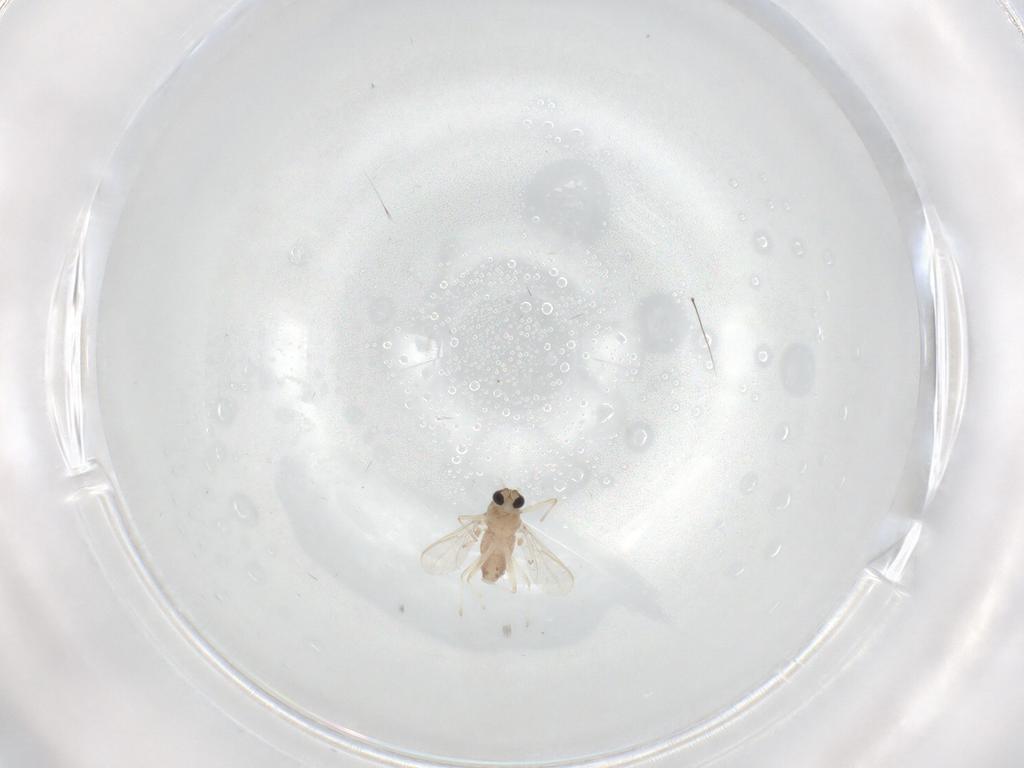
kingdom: Animalia
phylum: Arthropoda
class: Insecta
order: Diptera
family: Chironomidae
